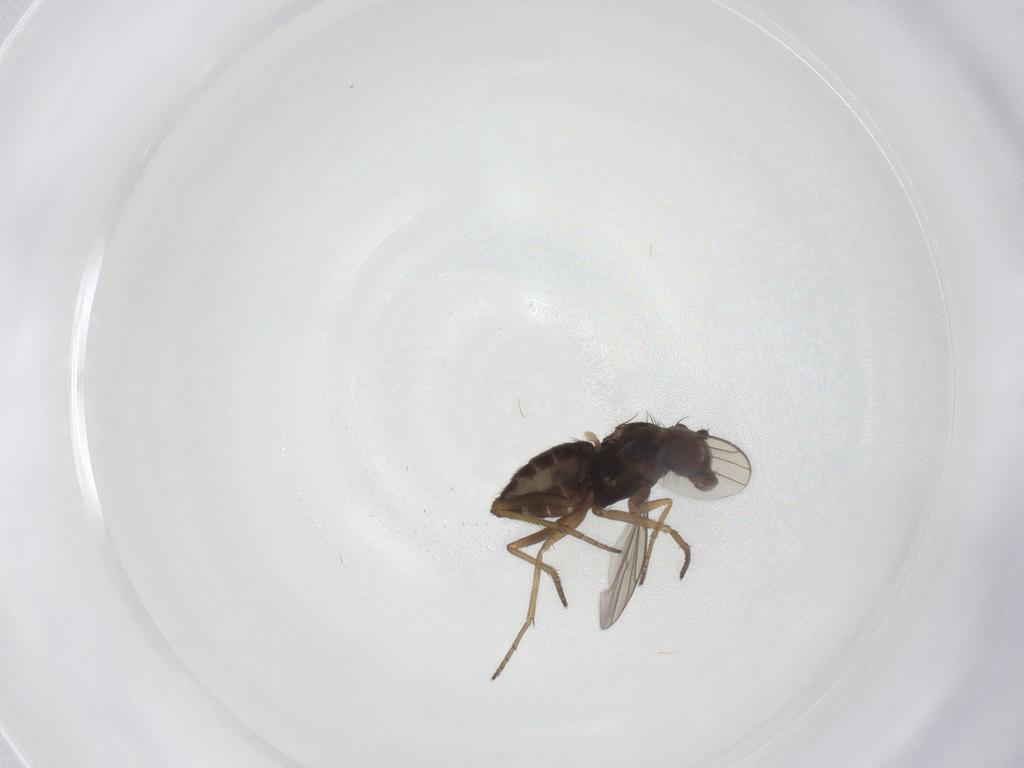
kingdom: Animalia
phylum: Arthropoda
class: Insecta
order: Diptera
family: Dolichopodidae
